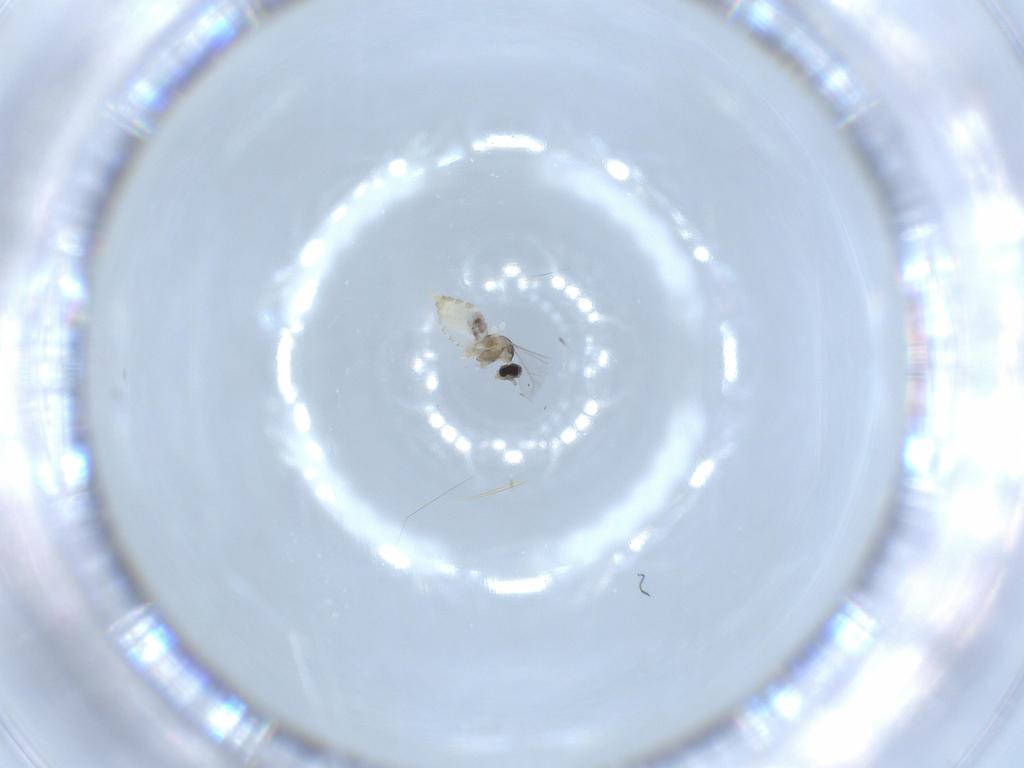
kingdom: Animalia
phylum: Arthropoda
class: Insecta
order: Diptera
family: Cecidomyiidae
